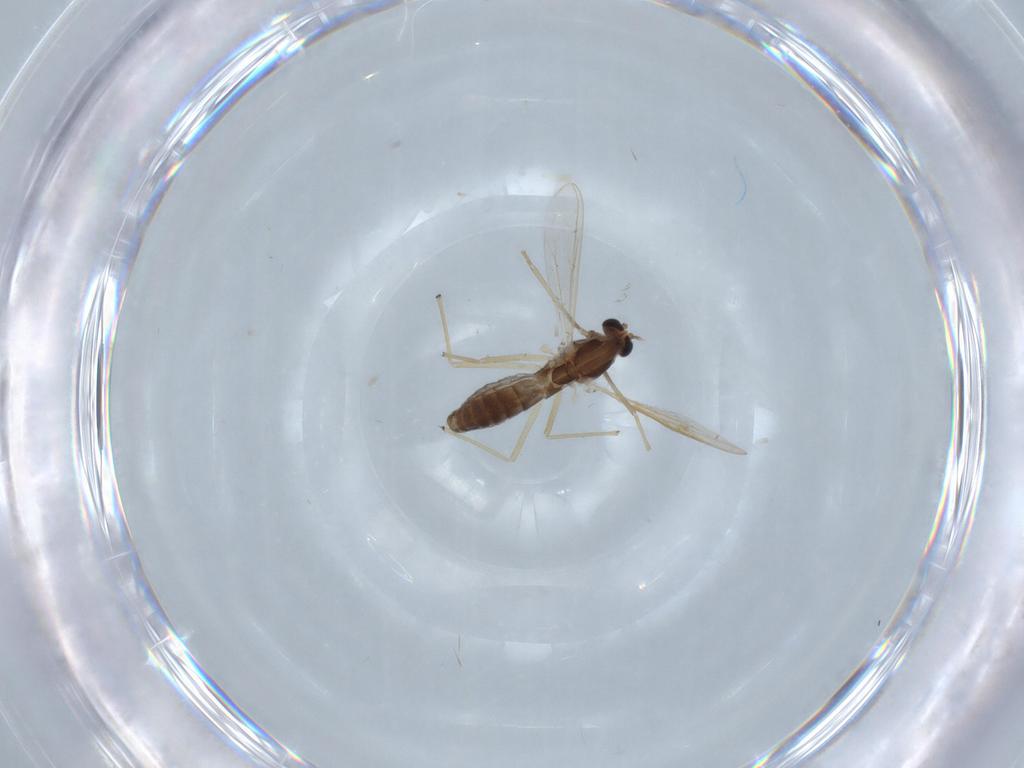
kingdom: Animalia
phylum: Arthropoda
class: Insecta
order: Diptera
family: Chironomidae
